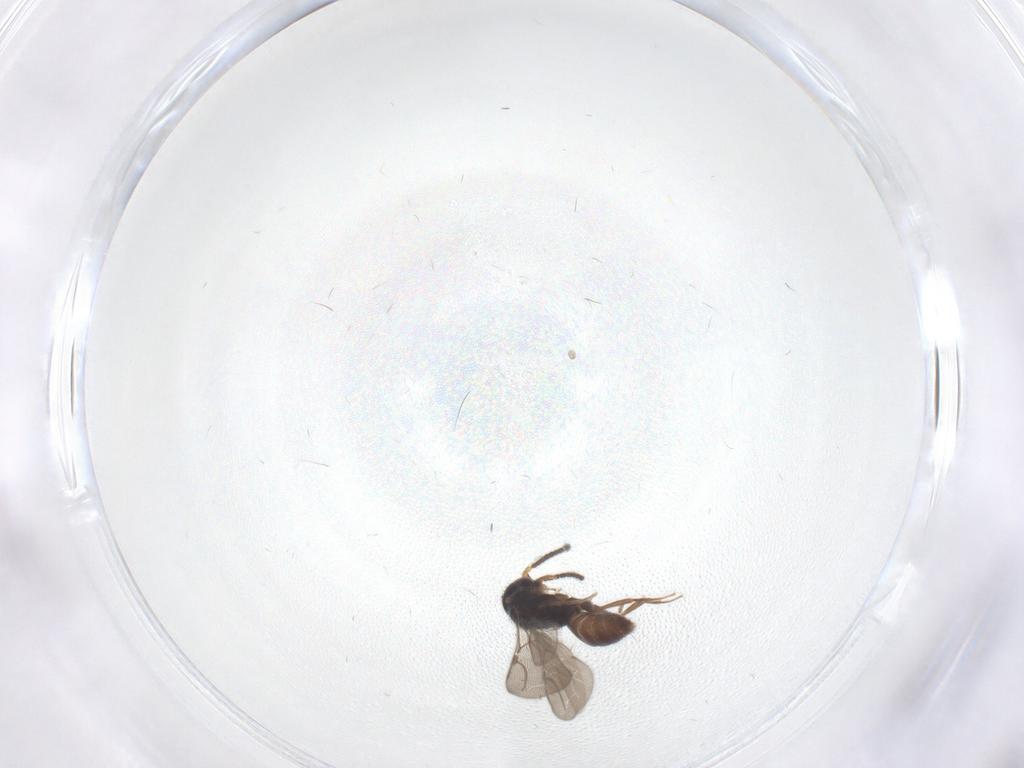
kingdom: Animalia
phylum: Arthropoda
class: Insecta
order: Hymenoptera
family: Bethylidae
